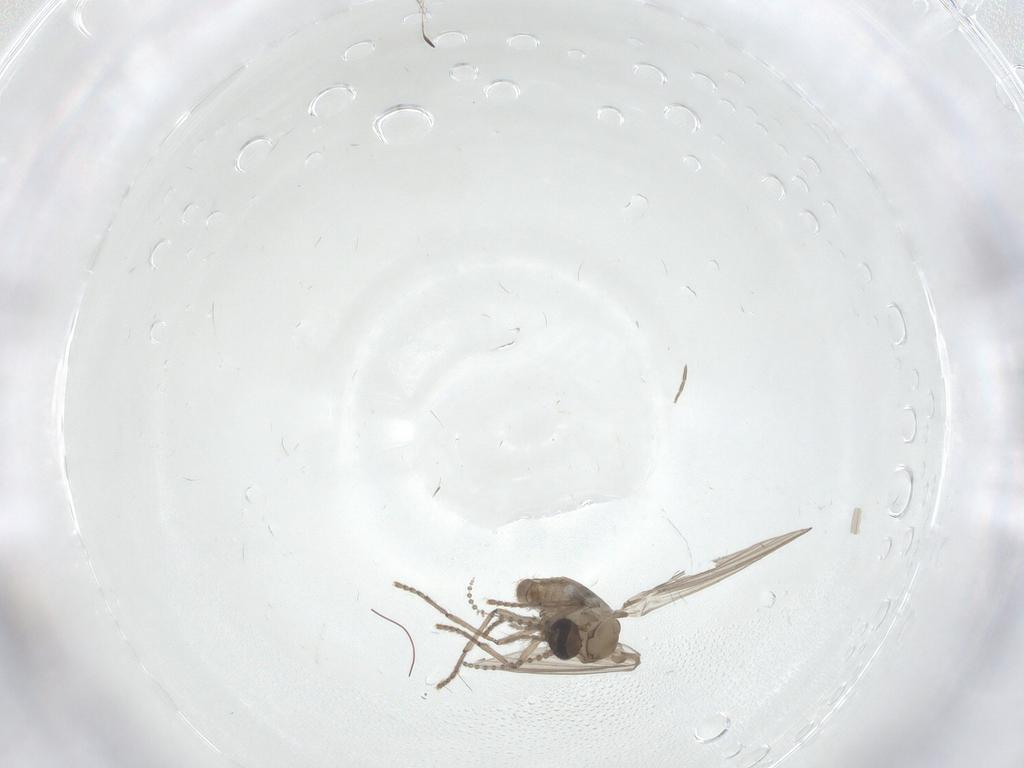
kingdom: Animalia
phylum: Arthropoda
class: Insecta
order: Diptera
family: Psychodidae
